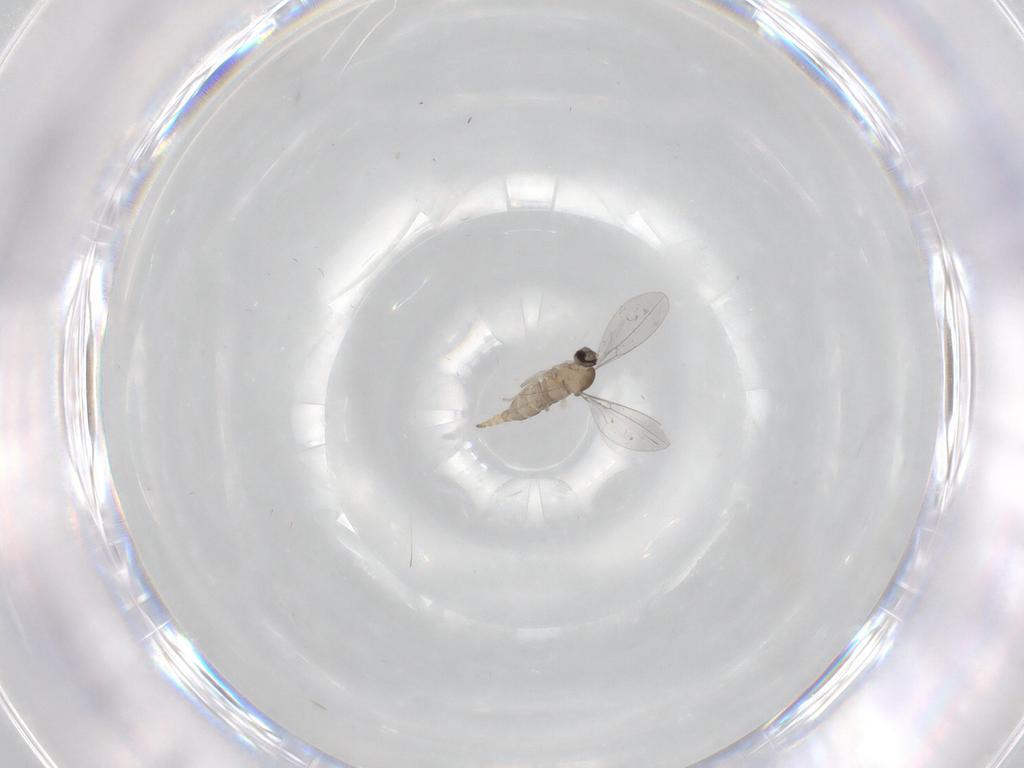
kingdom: Animalia
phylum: Arthropoda
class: Insecta
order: Diptera
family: Cecidomyiidae
